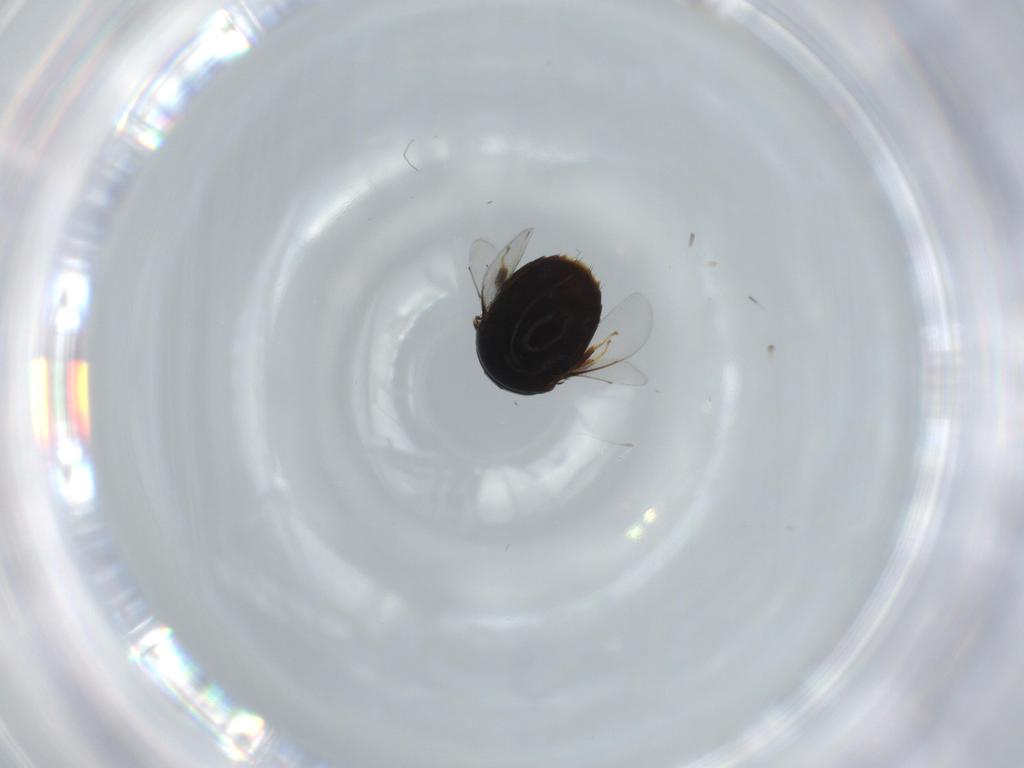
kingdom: Animalia
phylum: Arthropoda
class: Insecta
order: Hymenoptera
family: Aphelinidae
